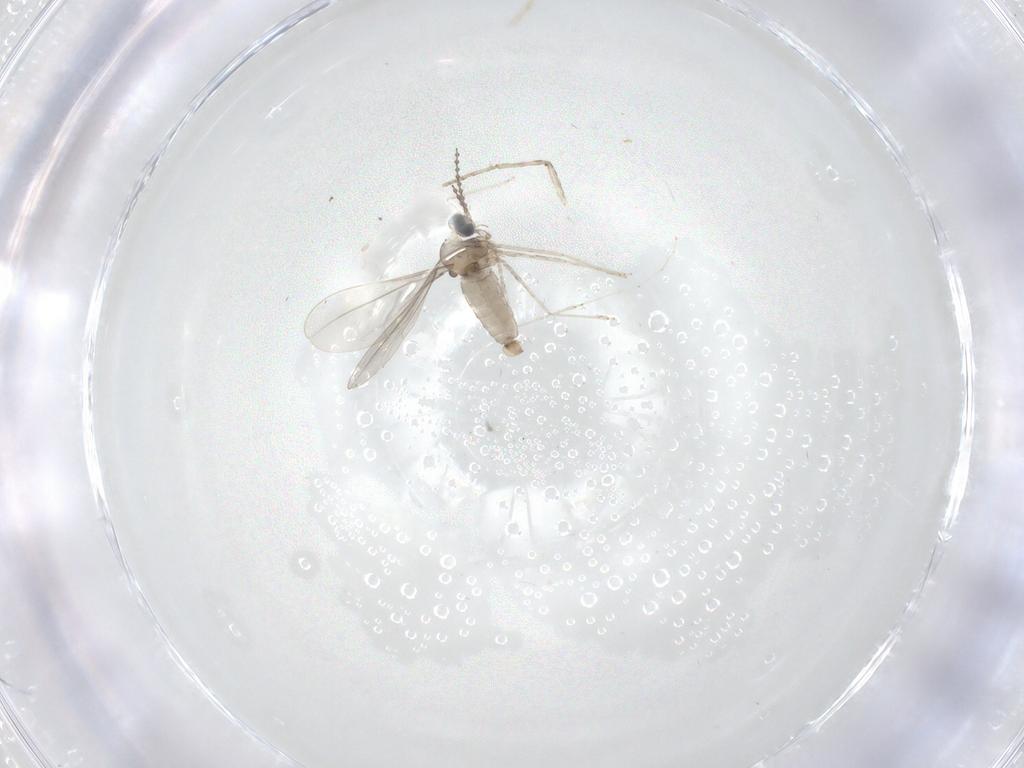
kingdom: Animalia
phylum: Arthropoda
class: Insecta
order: Diptera
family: Cecidomyiidae
